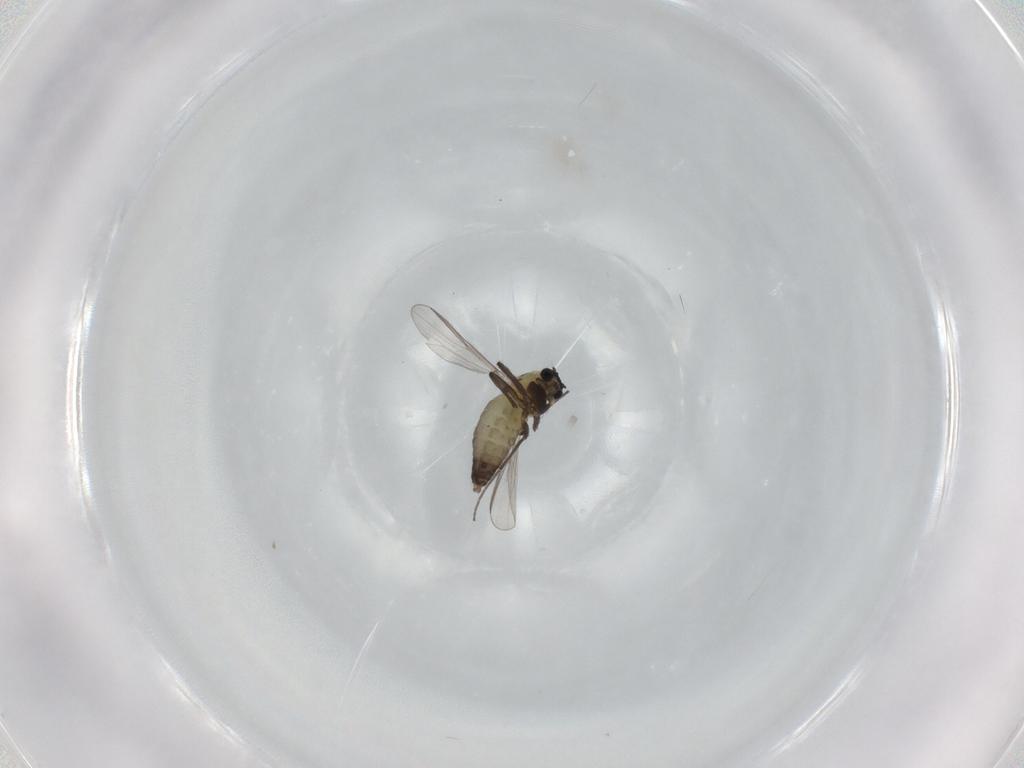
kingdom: Animalia
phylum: Arthropoda
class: Insecta
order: Diptera
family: Chironomidae
